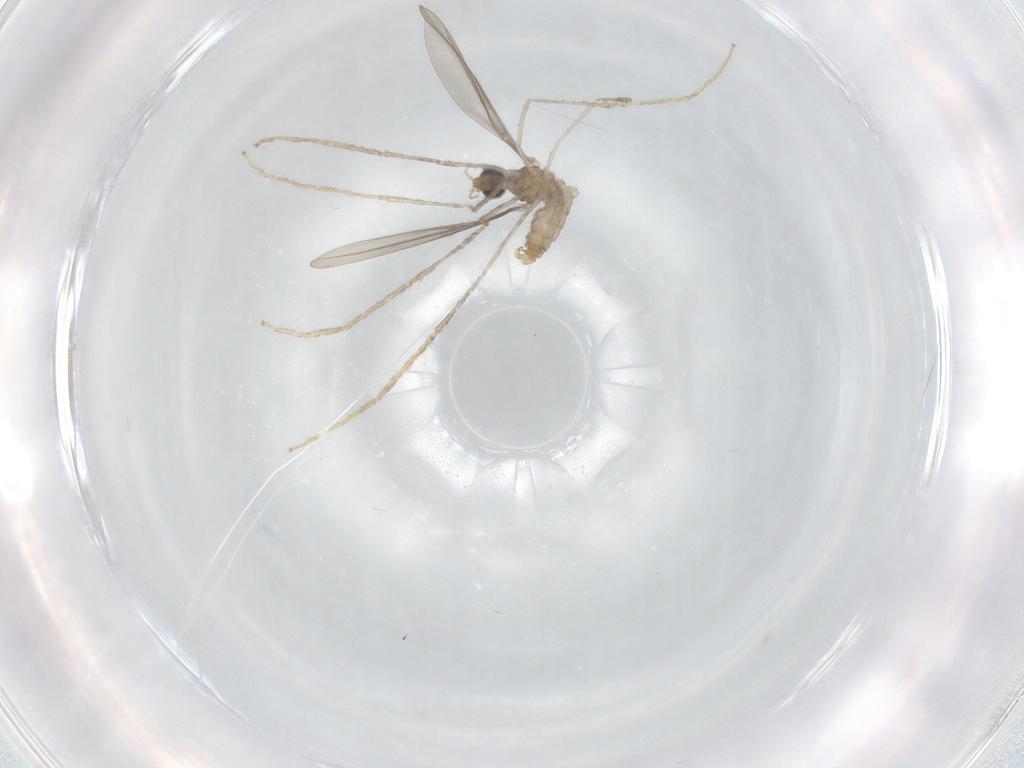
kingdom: Animalia
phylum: Arthropoda
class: Insecta
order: Diptera
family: Cecidomyiidae
